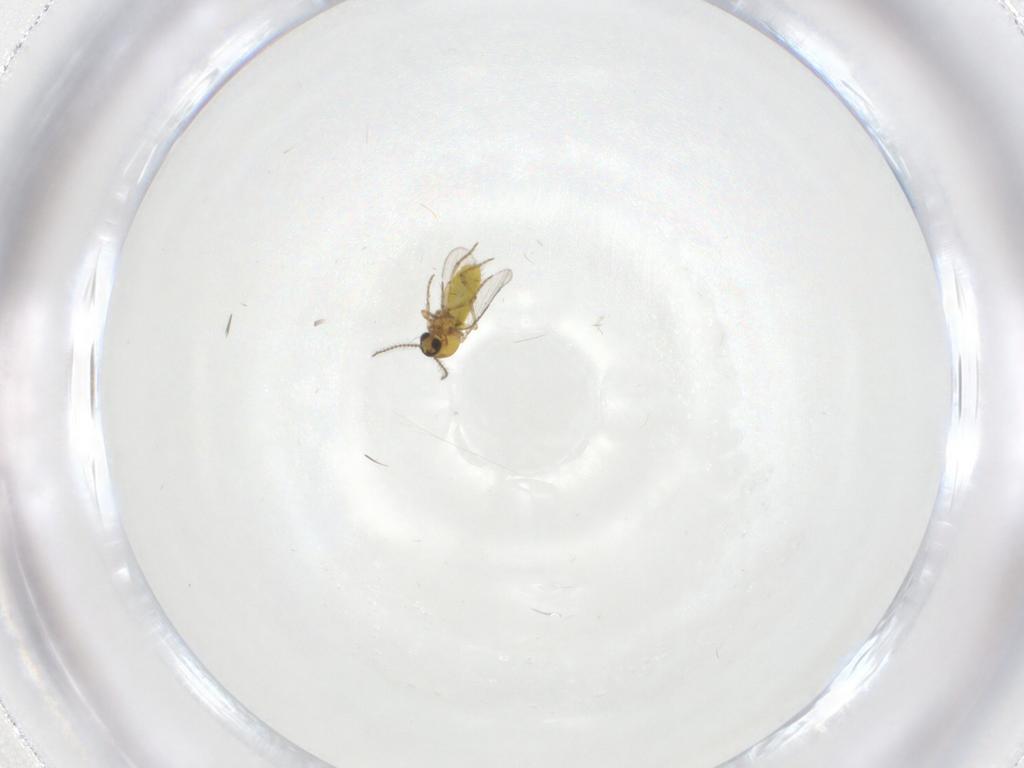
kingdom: Animalia
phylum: Arthropoda
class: Insecta
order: Diptera
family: Ceratopogonidae
